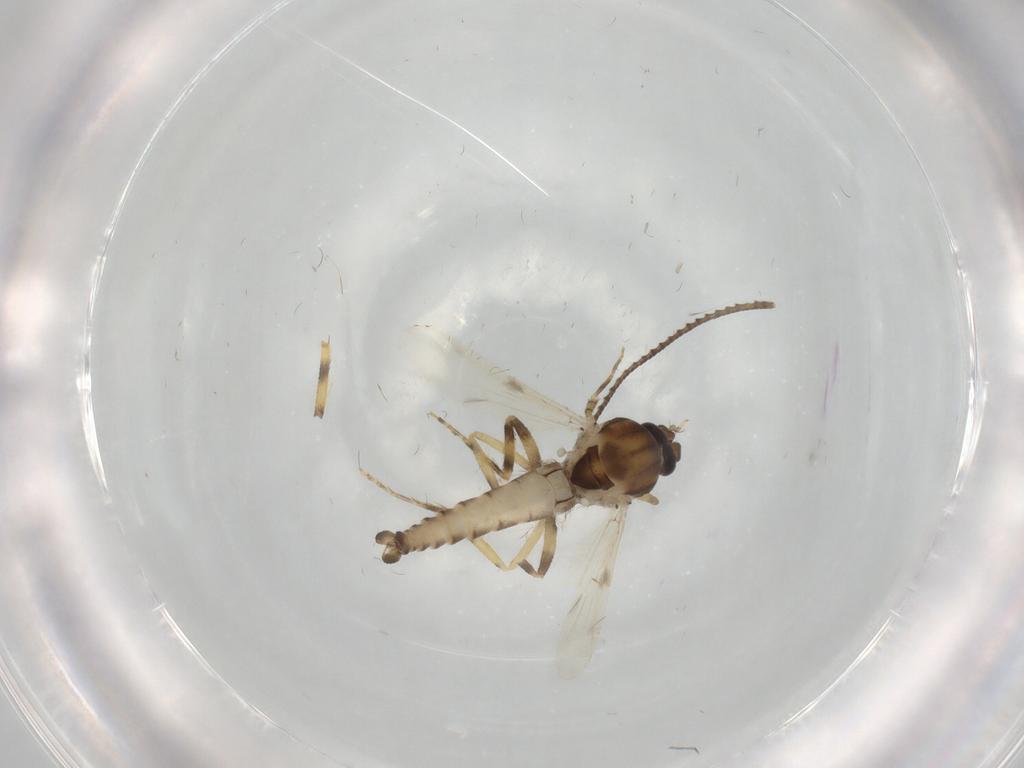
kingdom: Animalia
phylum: Arthropoda
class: Insecta
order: Diptera
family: Ceratopogonidae
